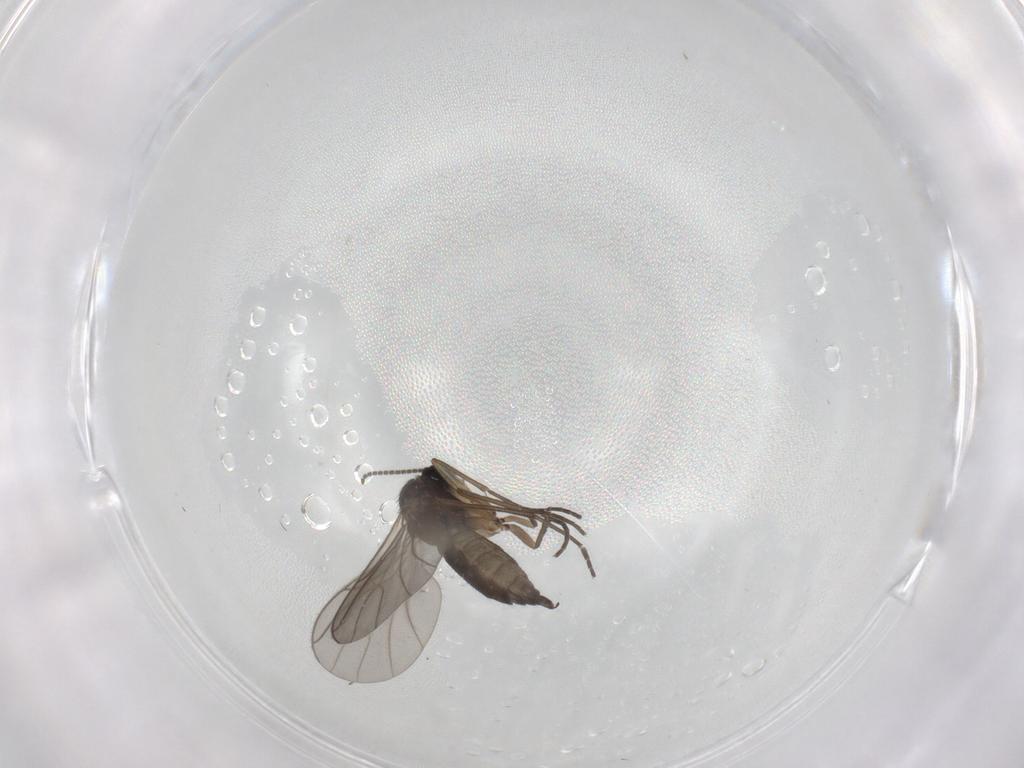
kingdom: Animalia
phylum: Arthropoda
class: Insecta
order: Diptera
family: Sciaridae
